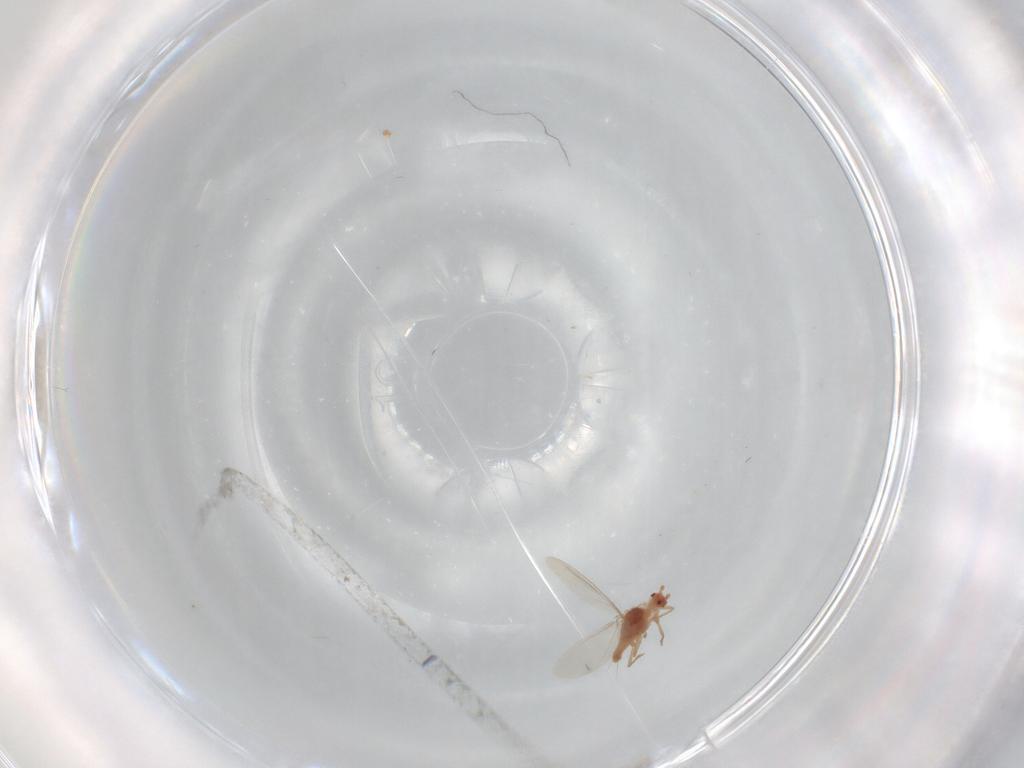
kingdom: Animalia
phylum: Arthropoda
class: Insecta
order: Hemiptera
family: Cicadellidae
